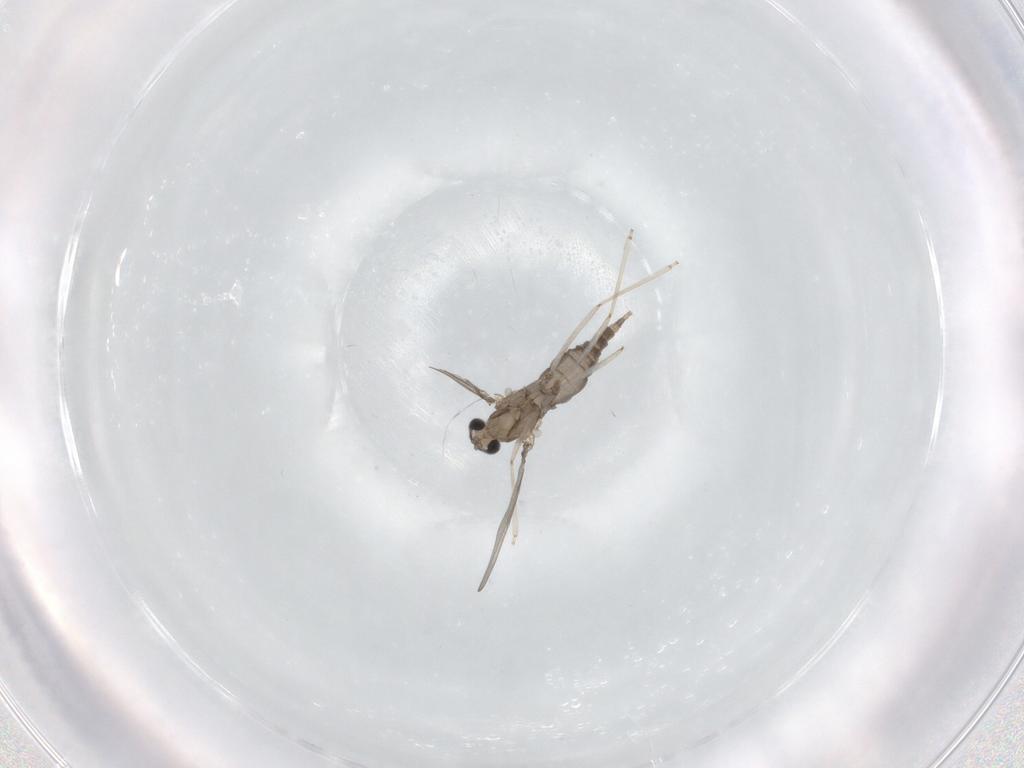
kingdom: Animalia
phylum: Arthropoda
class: Insecta
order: Diptera
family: Cecidomyiidae
